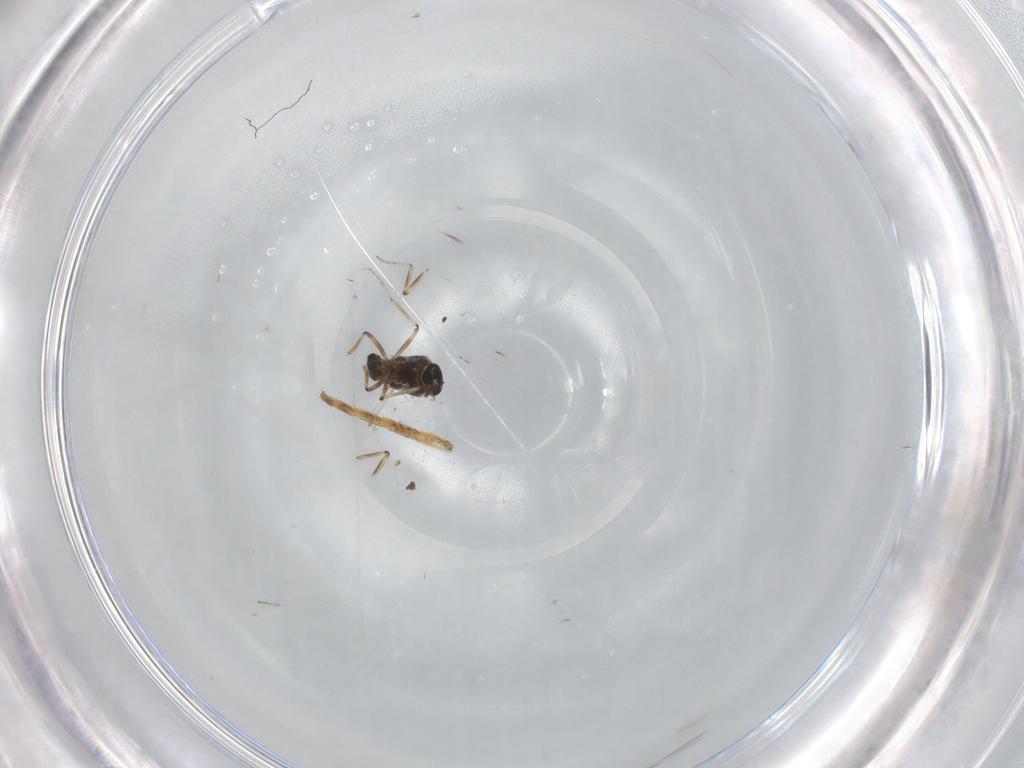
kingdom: Animalia
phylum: Arthropoda
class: Insecta
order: Diptera
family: Ceratopogonidae
